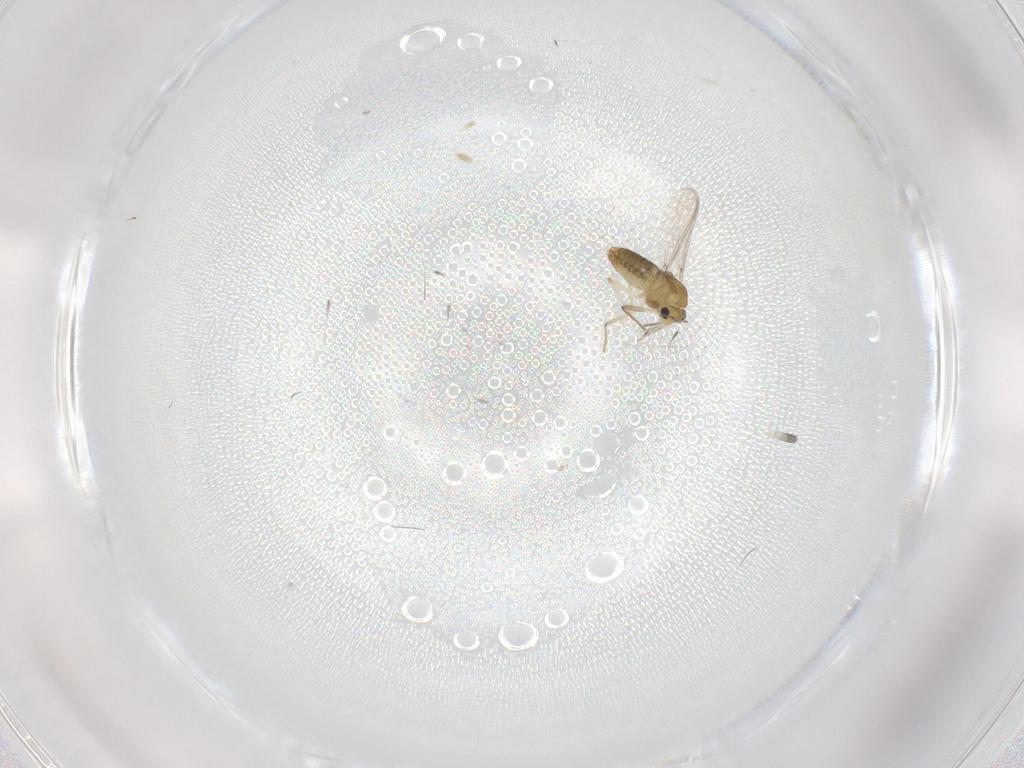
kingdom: Animalia
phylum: Arthropoda
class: Insecta
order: Diptera
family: Chironomidae
